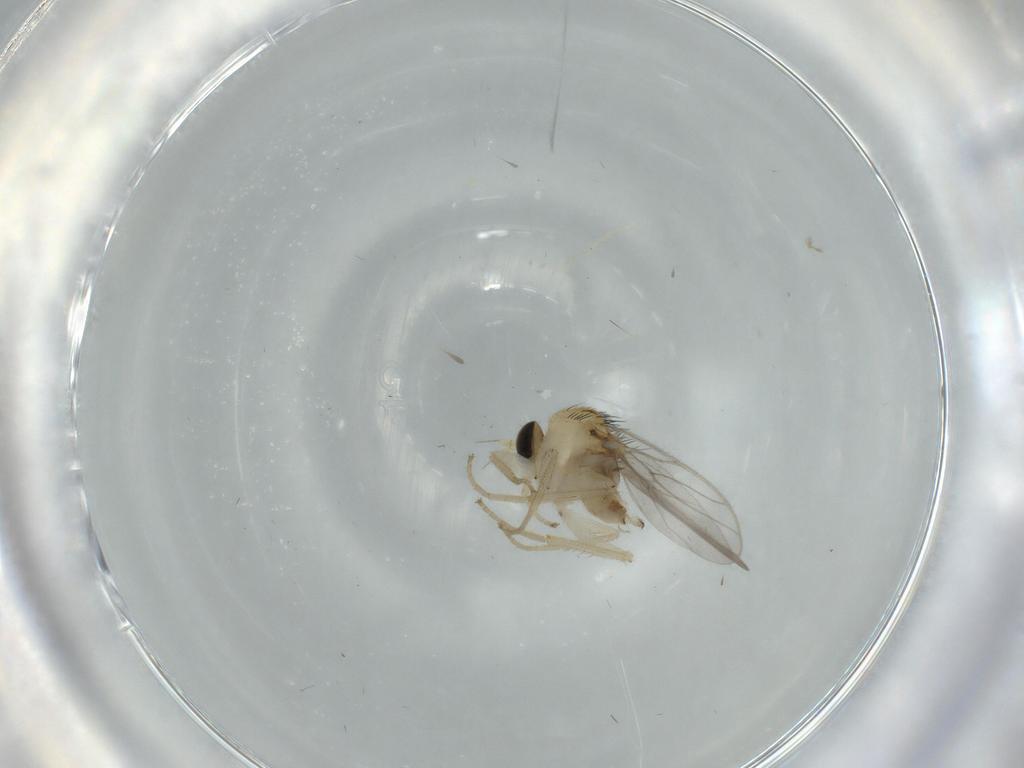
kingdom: Animalia
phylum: Arthropoda
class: Insecta
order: Diptera
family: Hybotidae
